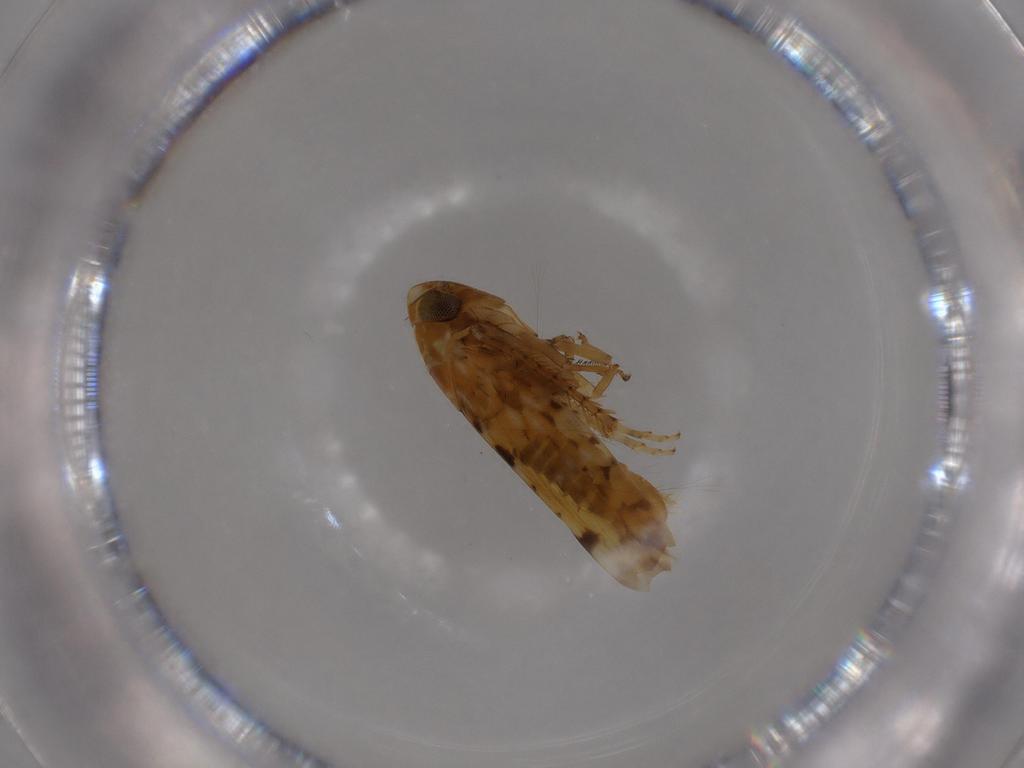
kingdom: Animalia
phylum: Arthropoda
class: Insecta
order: Hemiptera
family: Cicadellidae
